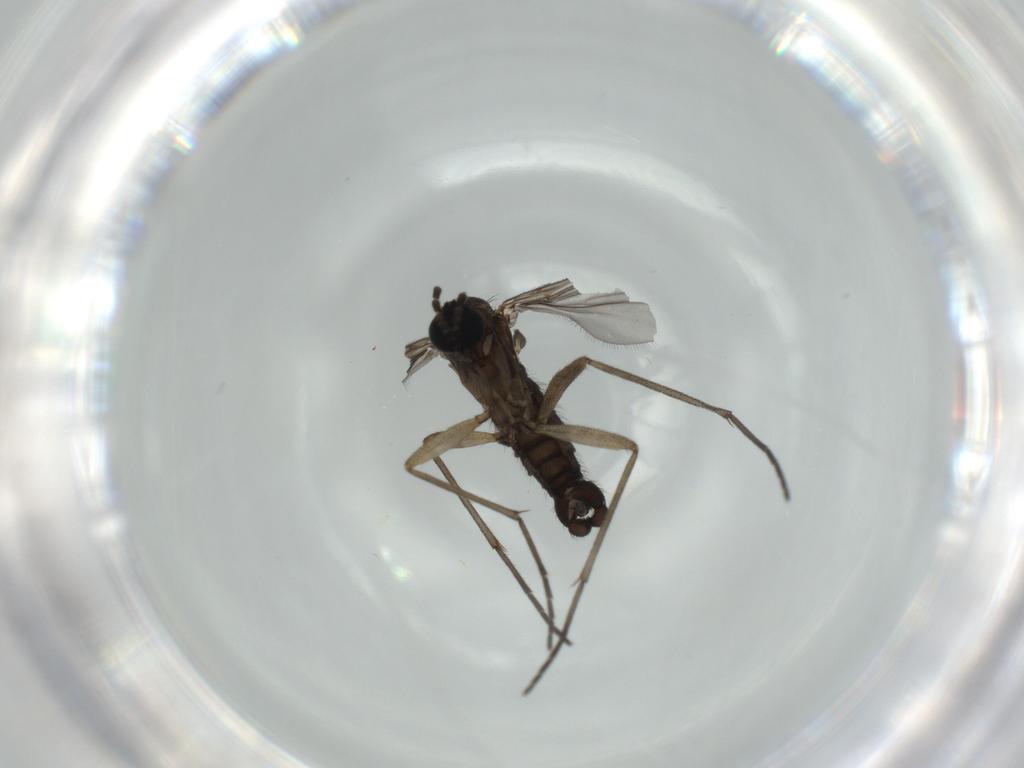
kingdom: Animalia
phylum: Arthropoda
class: Insecta
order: Diptera
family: Sciaridae
